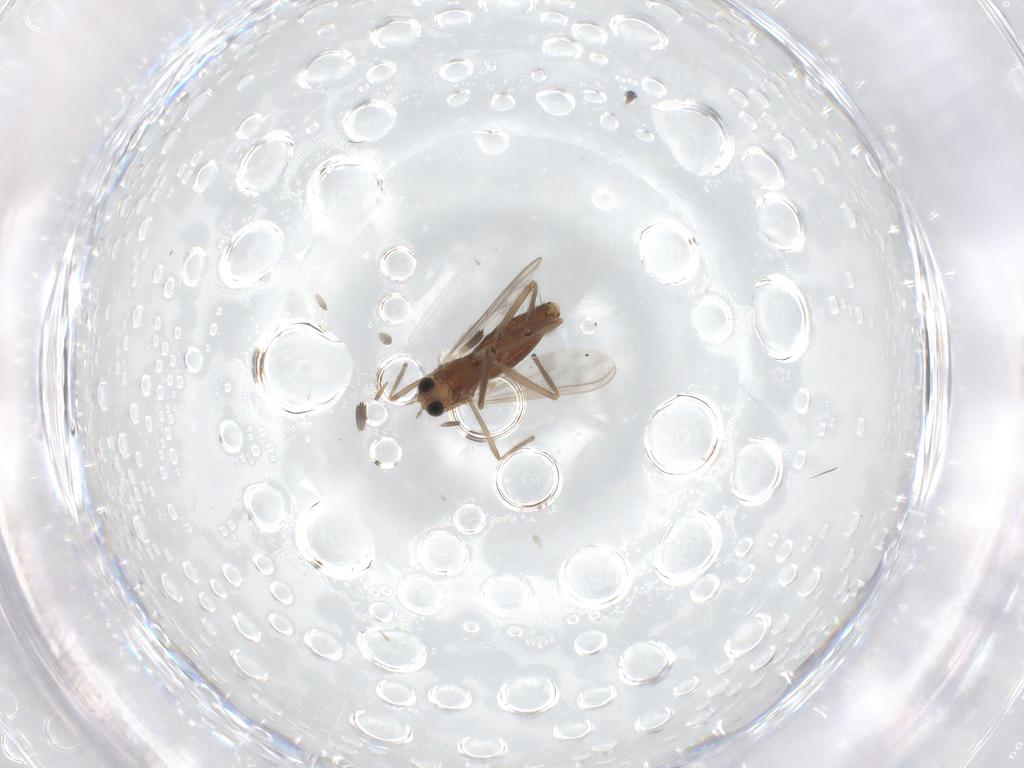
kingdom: Animalia
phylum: Arthropoda
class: Insecta
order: Diptera
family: Chironomidae
